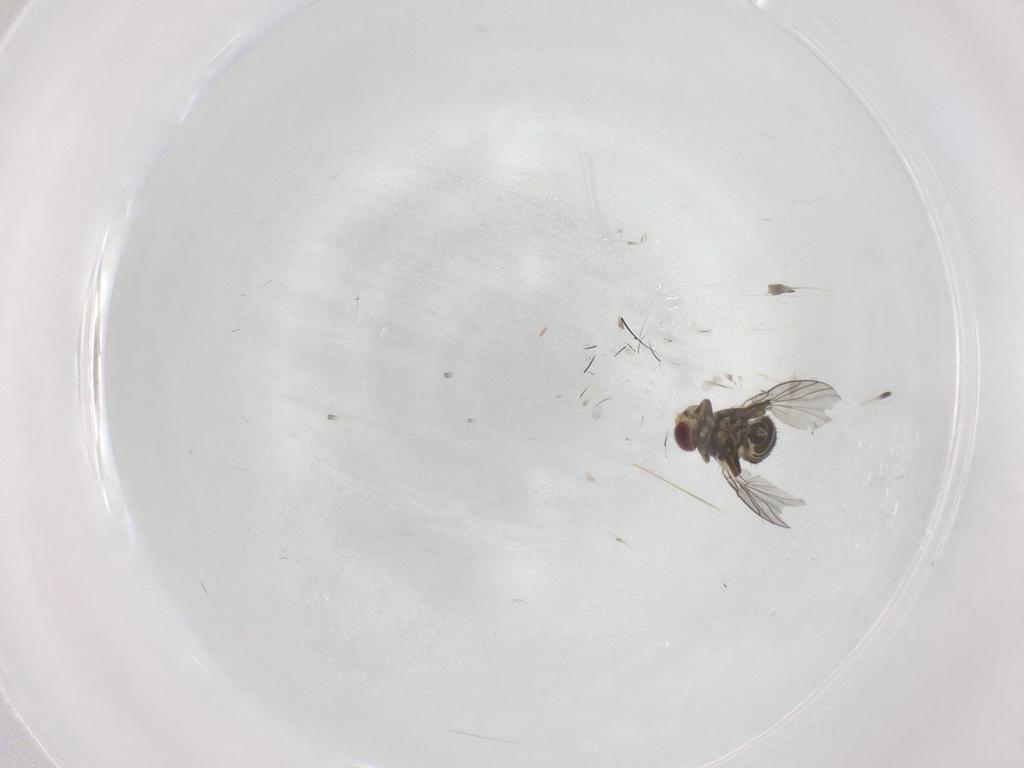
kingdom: Animalia
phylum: Arthropoda
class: Insecta
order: Diptera
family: Agromyzidae
